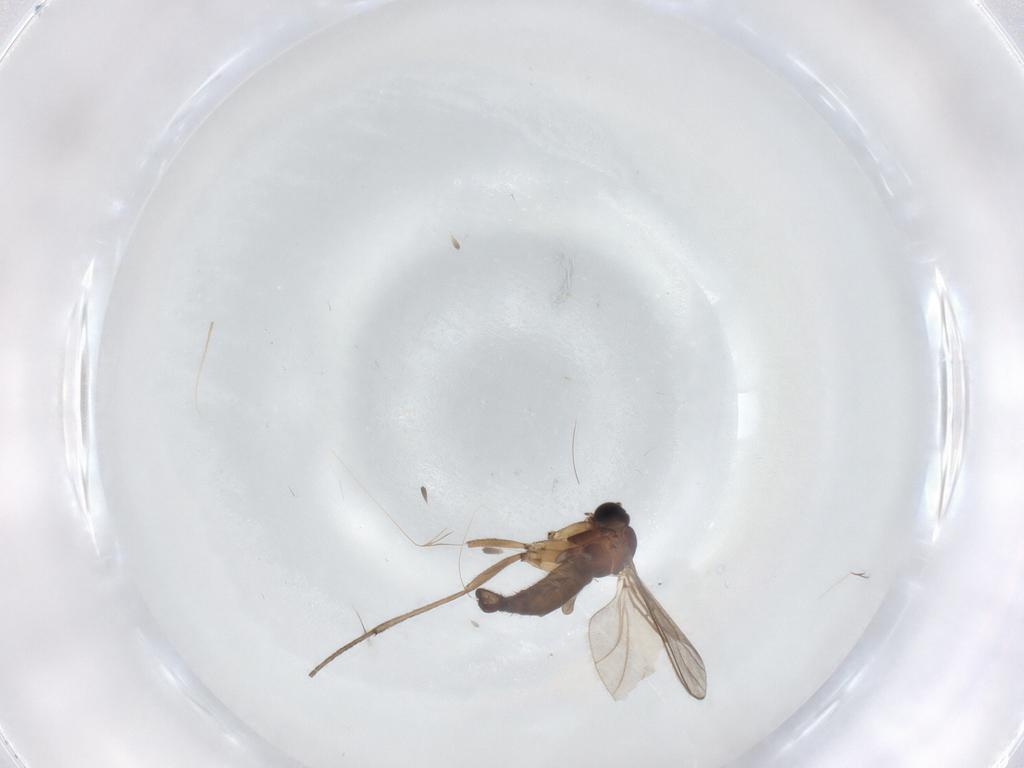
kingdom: Animalia
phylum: Arthropoda
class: Insecta
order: Diptera
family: Sciaridae
